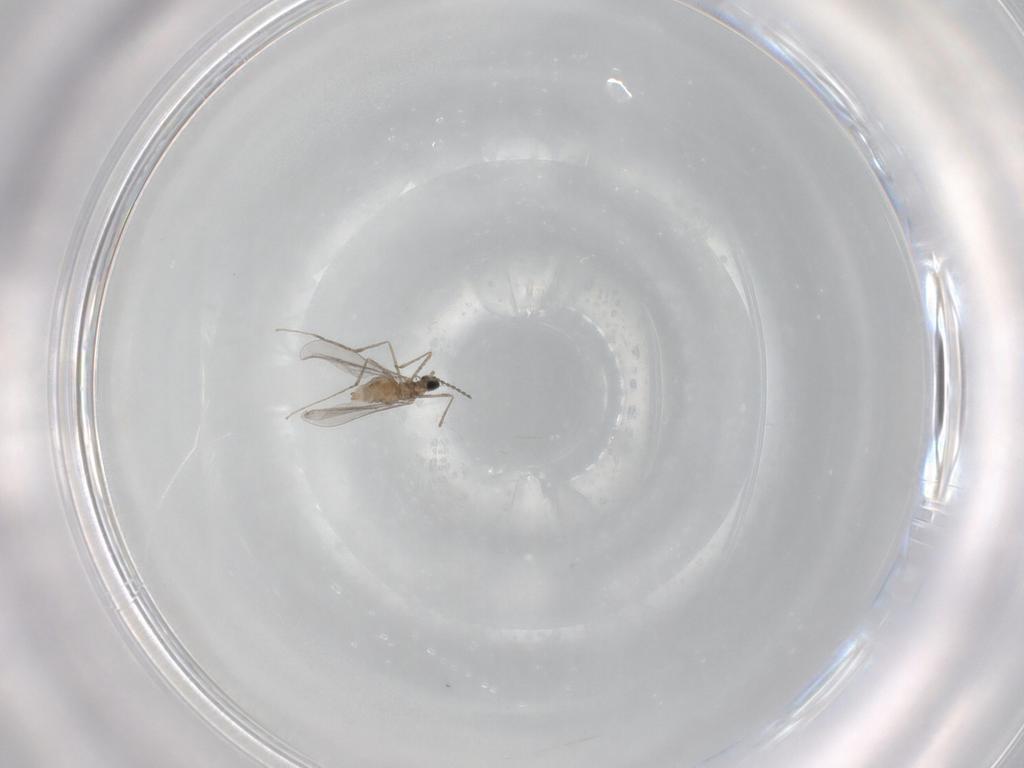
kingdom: Animalia
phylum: Arthropoda
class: Insecta
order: Diptera
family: Cecidomyiidae
